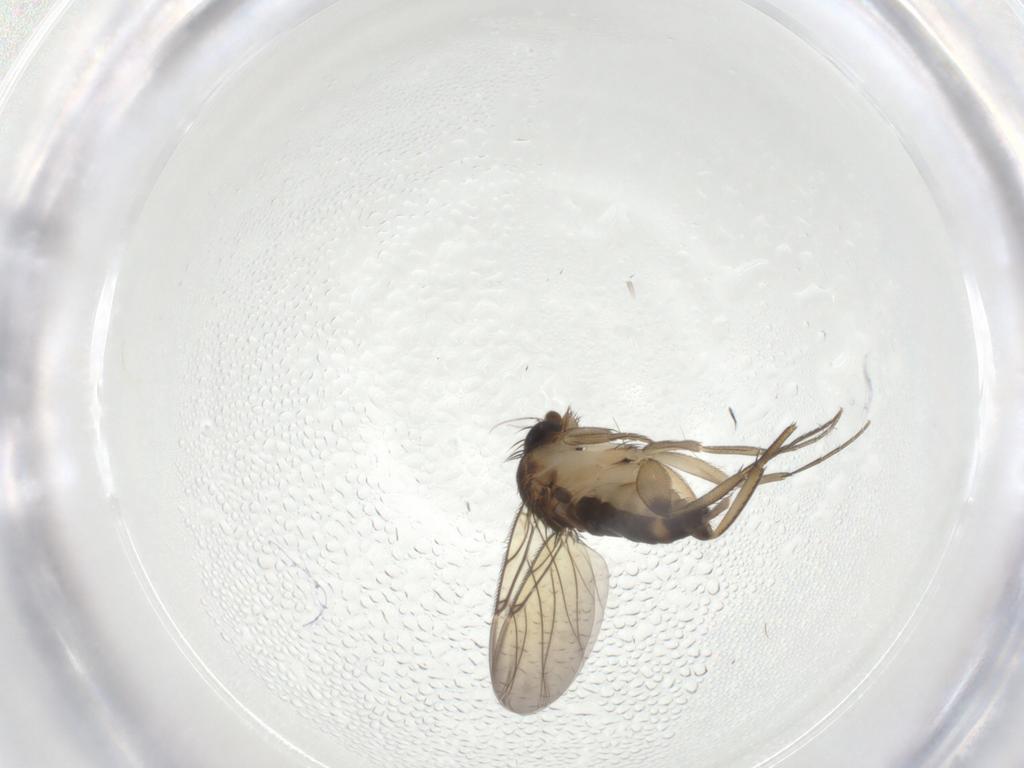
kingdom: Animalia
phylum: Arthropoda
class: Insecta
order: Diptera
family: Phoridae
